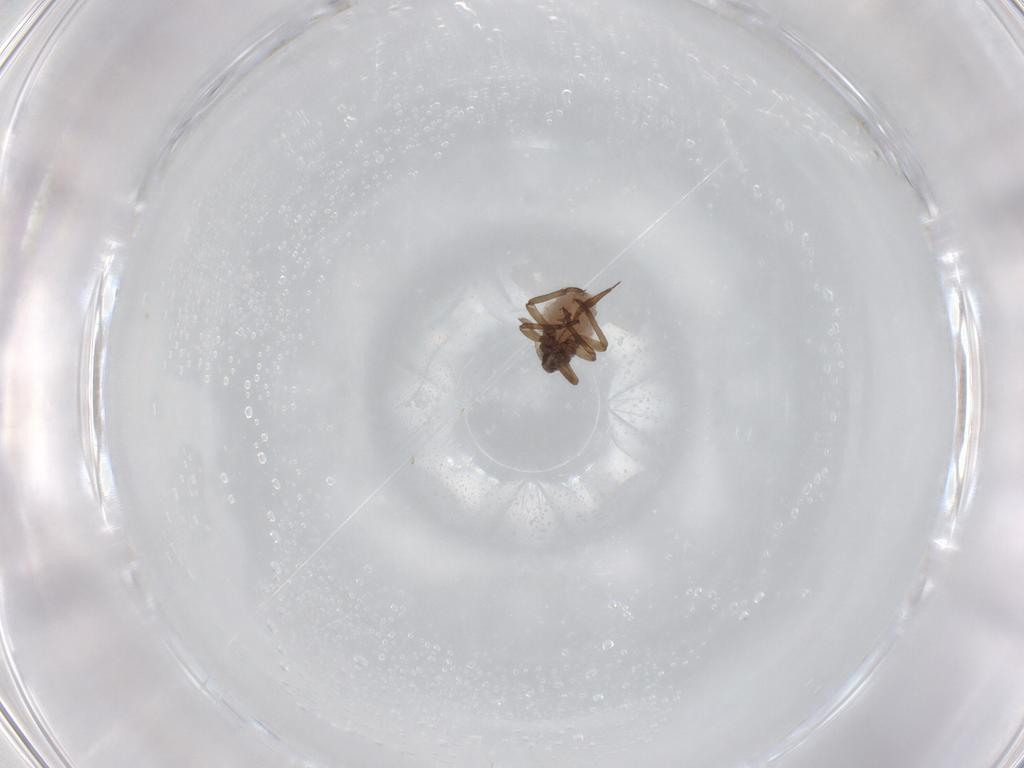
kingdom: Animalia
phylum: Arthropoda
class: Insecta
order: Hemiptera
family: Aphididae
